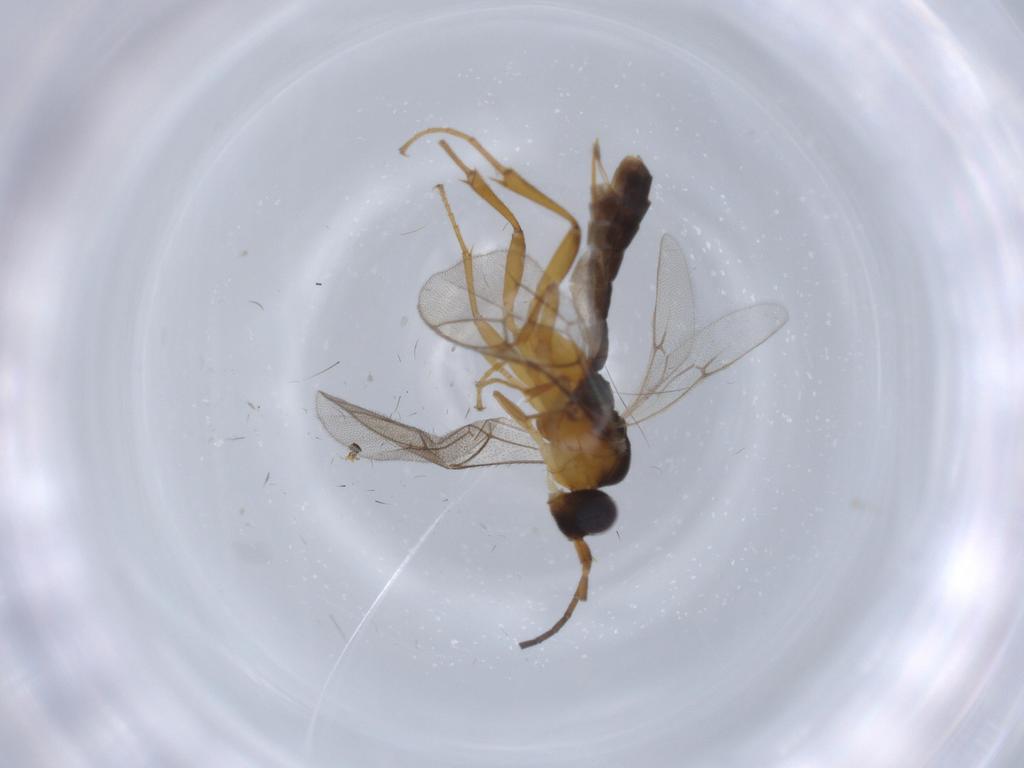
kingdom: Animalia
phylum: Arthropoda
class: Insecta
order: Hymenoptera
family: Ichneumonidae
